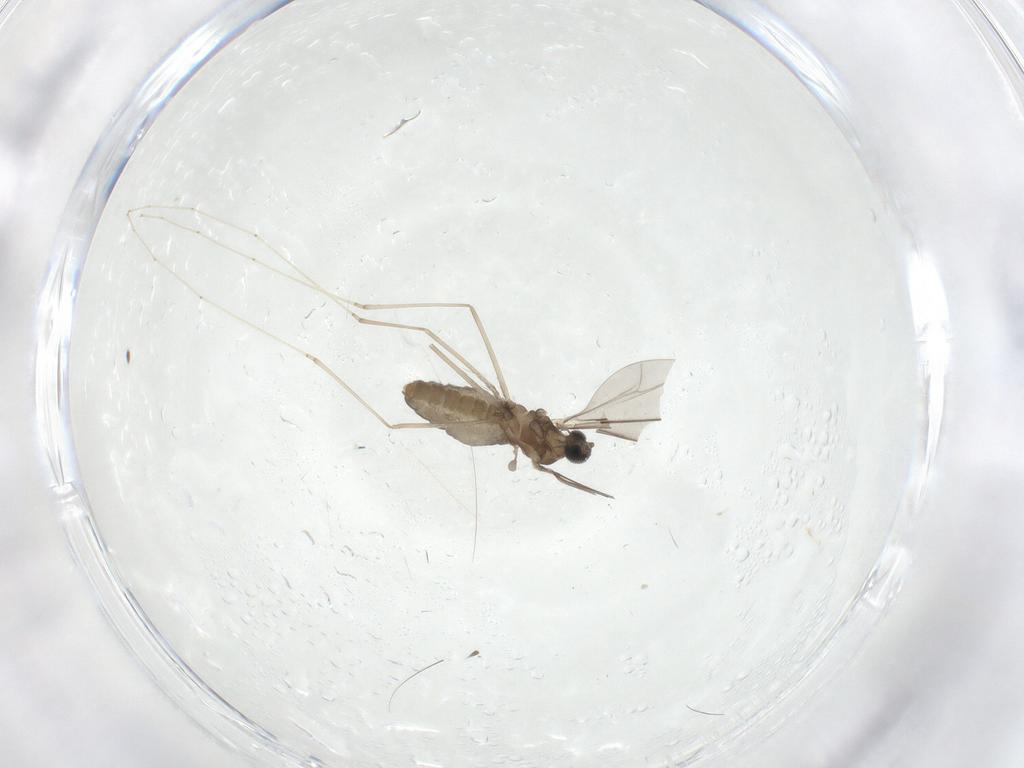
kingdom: Animalia
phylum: Arthropoda
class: Insecta
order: Diptera
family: Cecidomyiidae
